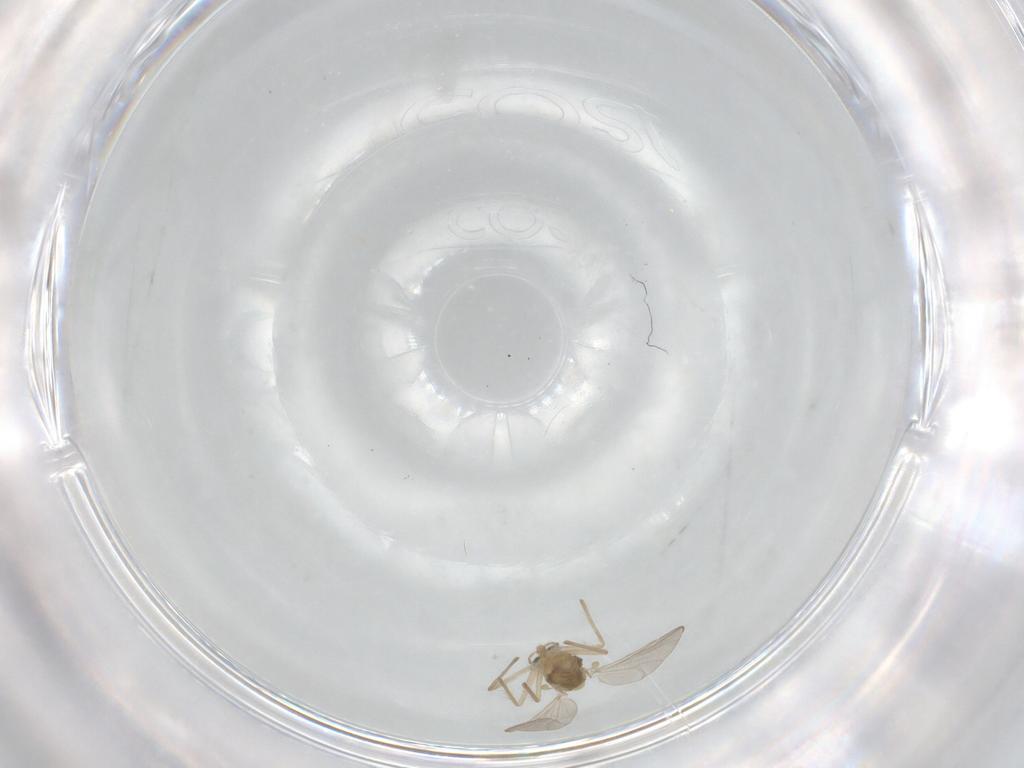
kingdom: Animalia
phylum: Arthropoda
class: Insecta
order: Diptera
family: Chironomidae
